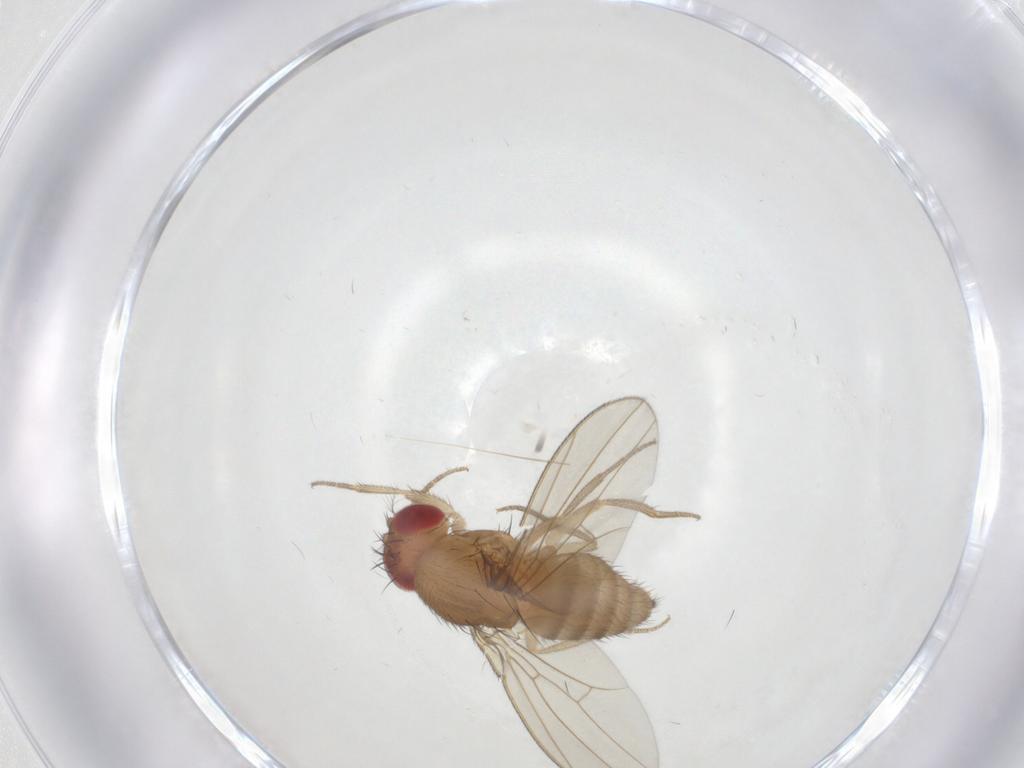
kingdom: Animalia
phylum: Arthropoda
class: Insecta
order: Diptera
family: Drosophilidae
